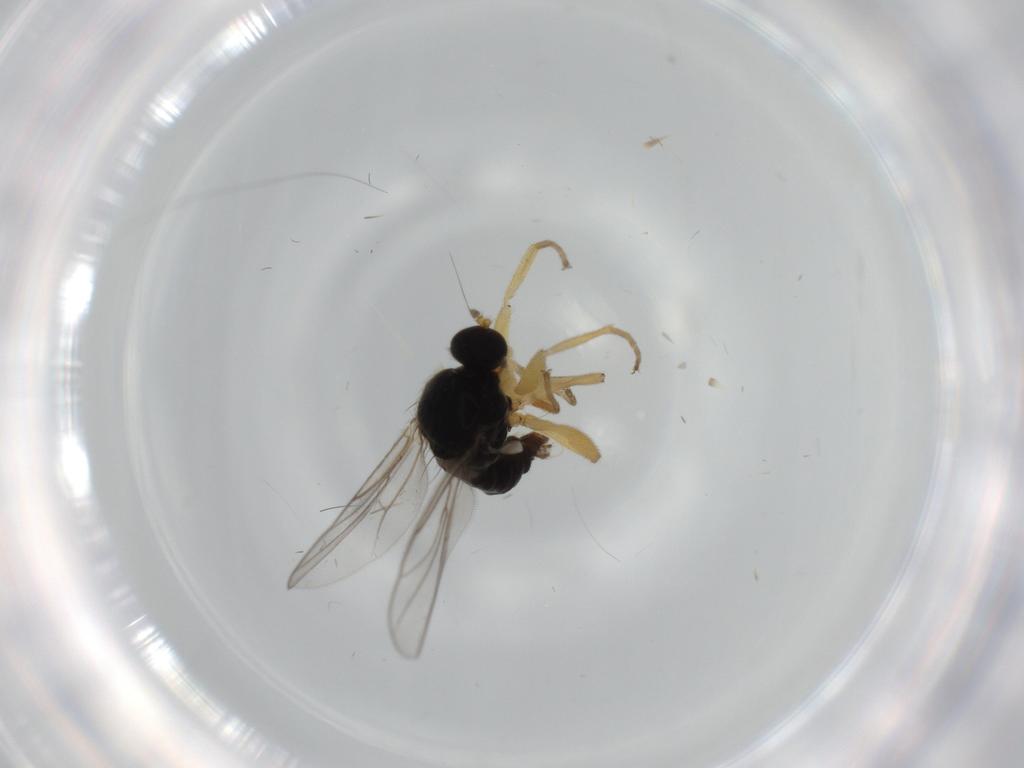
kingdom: Animalia
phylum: Arthropoda
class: Insecta
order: Diptera
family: Hybotidae
